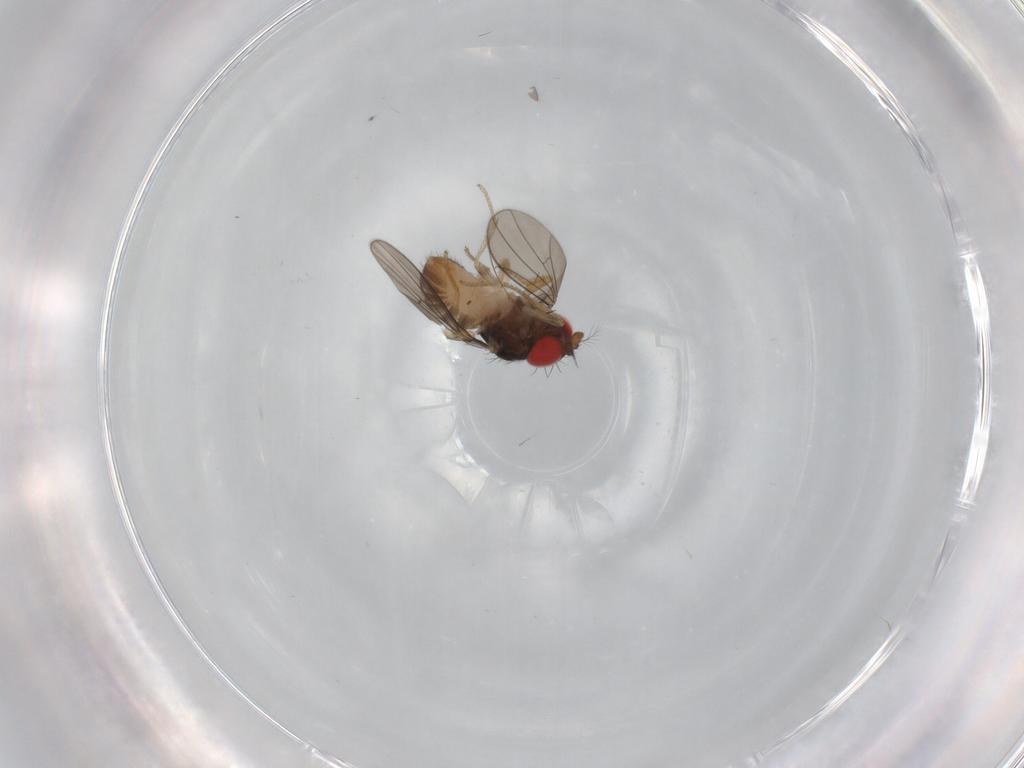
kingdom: Animalia
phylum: Arthropoda
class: Insecta
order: Diptera
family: Drosophilidae
